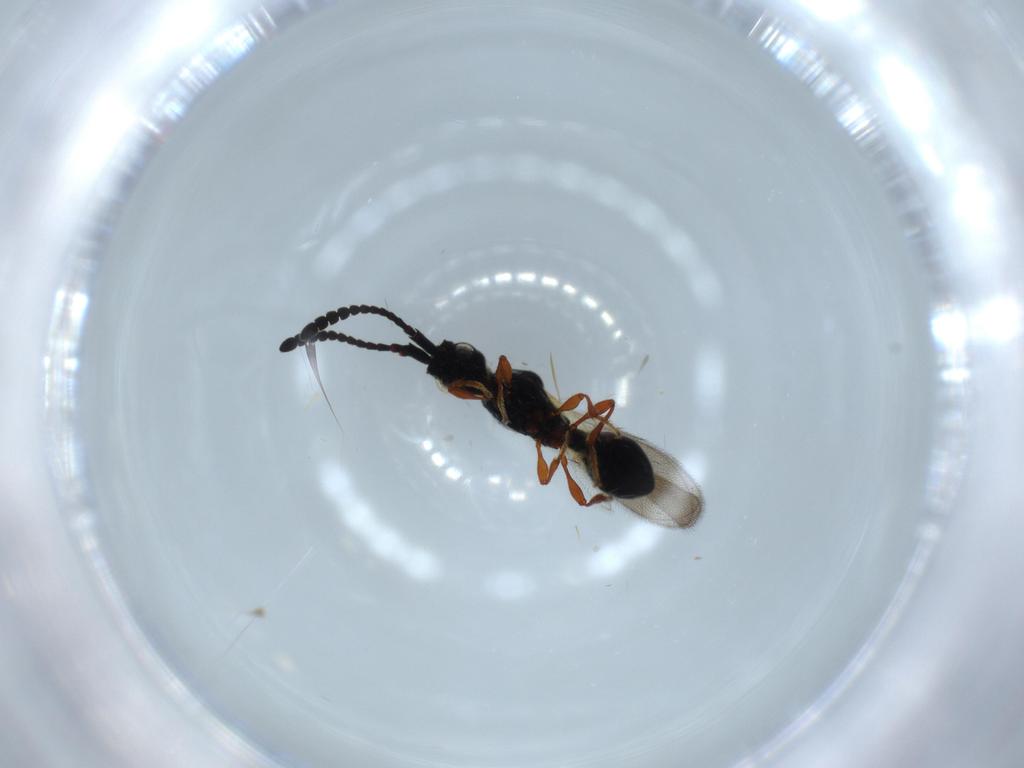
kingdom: Animalia
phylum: Arthropoda
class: Insecta
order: Hymenoptera
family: Diapriidae
